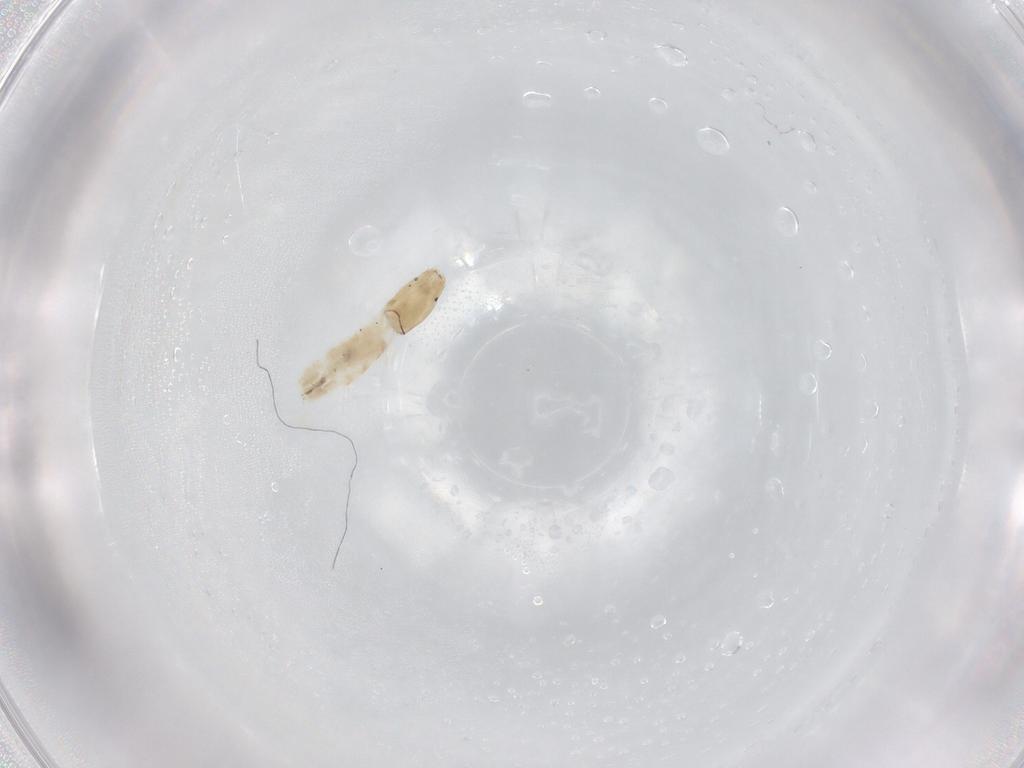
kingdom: Animalia
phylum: Arthropoda
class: Insecta
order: Diptera
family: Chironomidae
